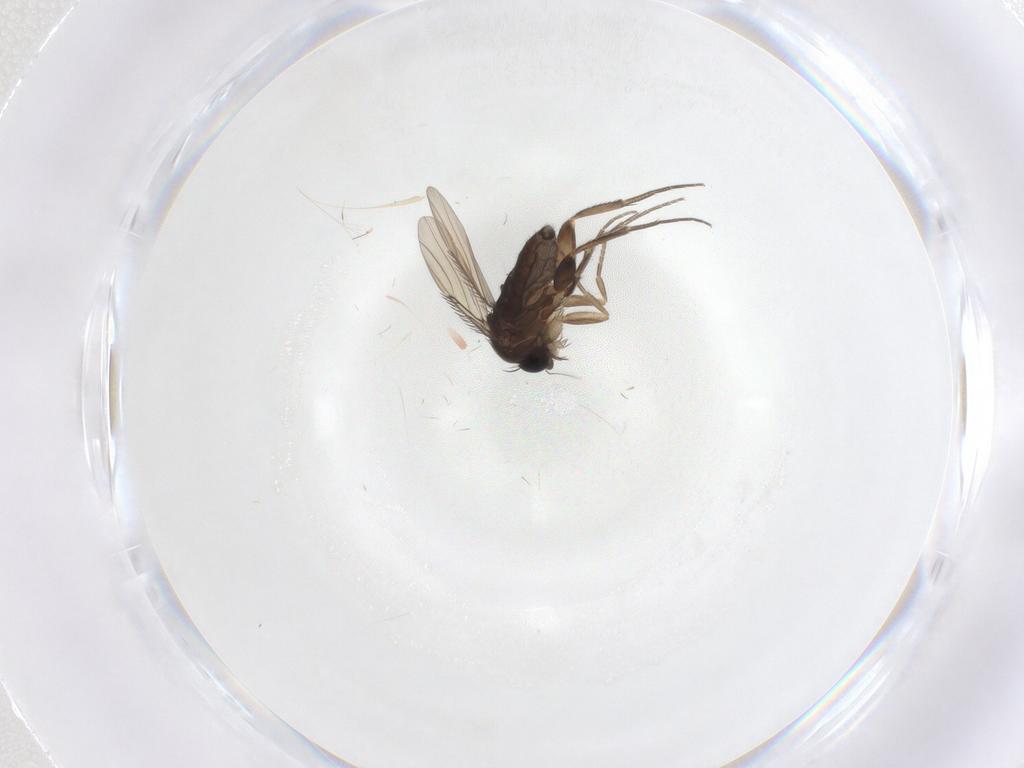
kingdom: Animalia
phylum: Arthropoda
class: Insecta
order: Diptera
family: Phoridae
